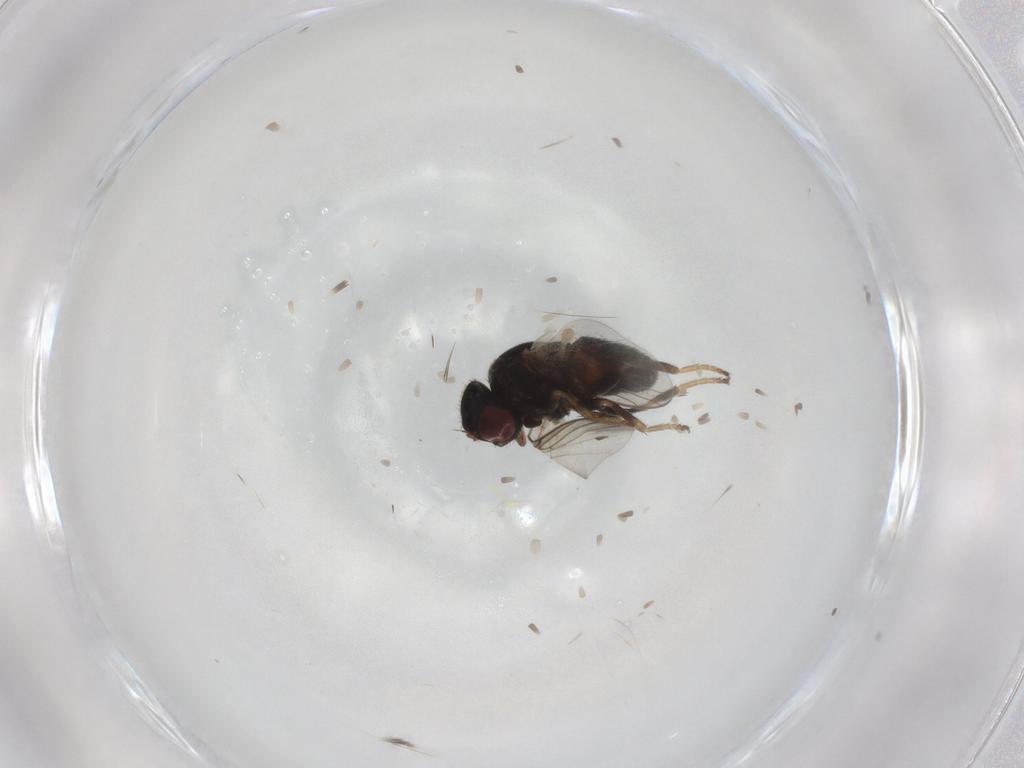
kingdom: Animalia
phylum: Arthropoda
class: Insecta
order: Diptera
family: Chloropidae
